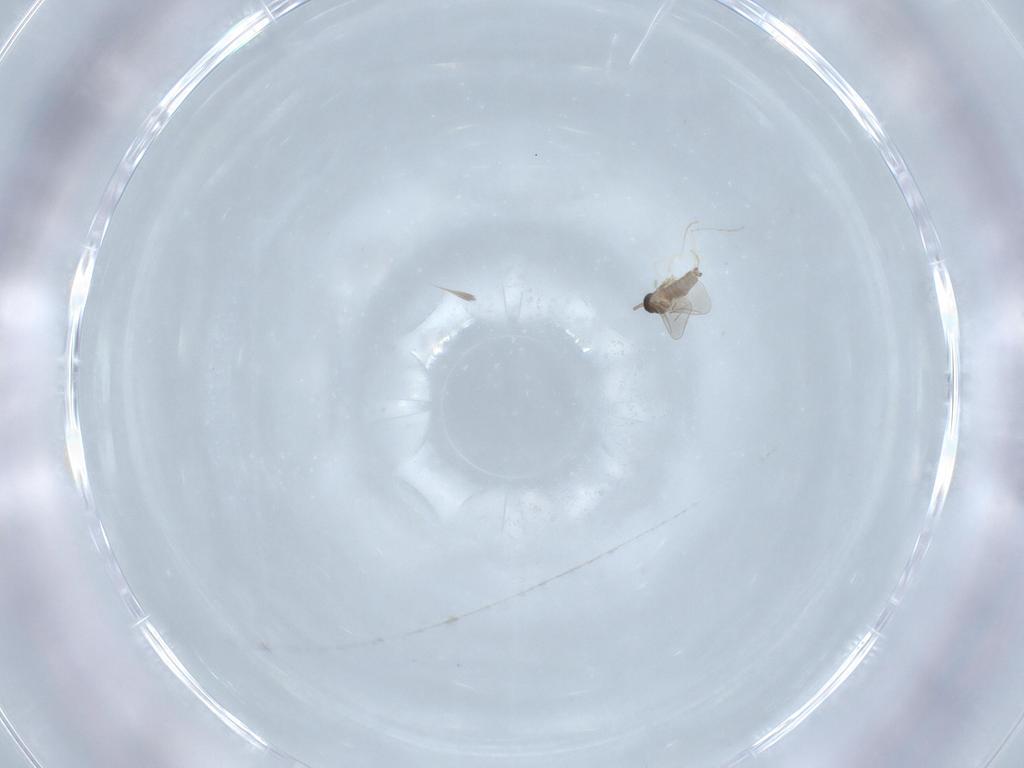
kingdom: Animalia
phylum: Arthropoda
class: Insecta
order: Diptera
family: Cecidomyiidae
